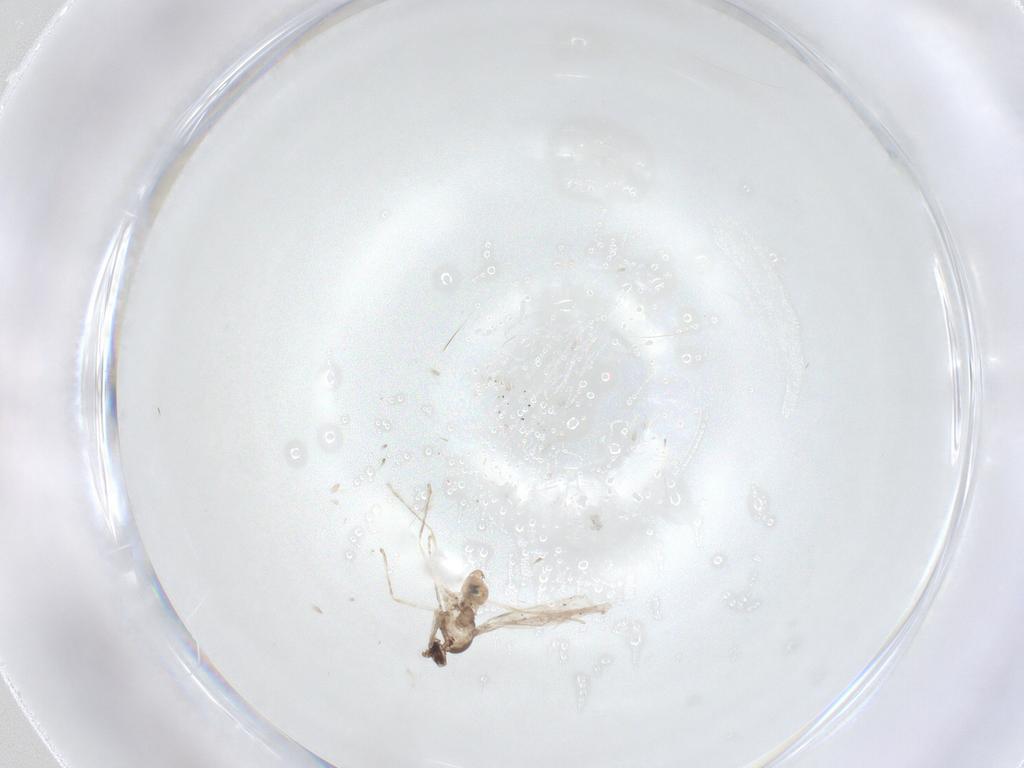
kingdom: Animalia
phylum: Arthropoda
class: Insecta
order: Diptera
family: Cecidomyiidae
